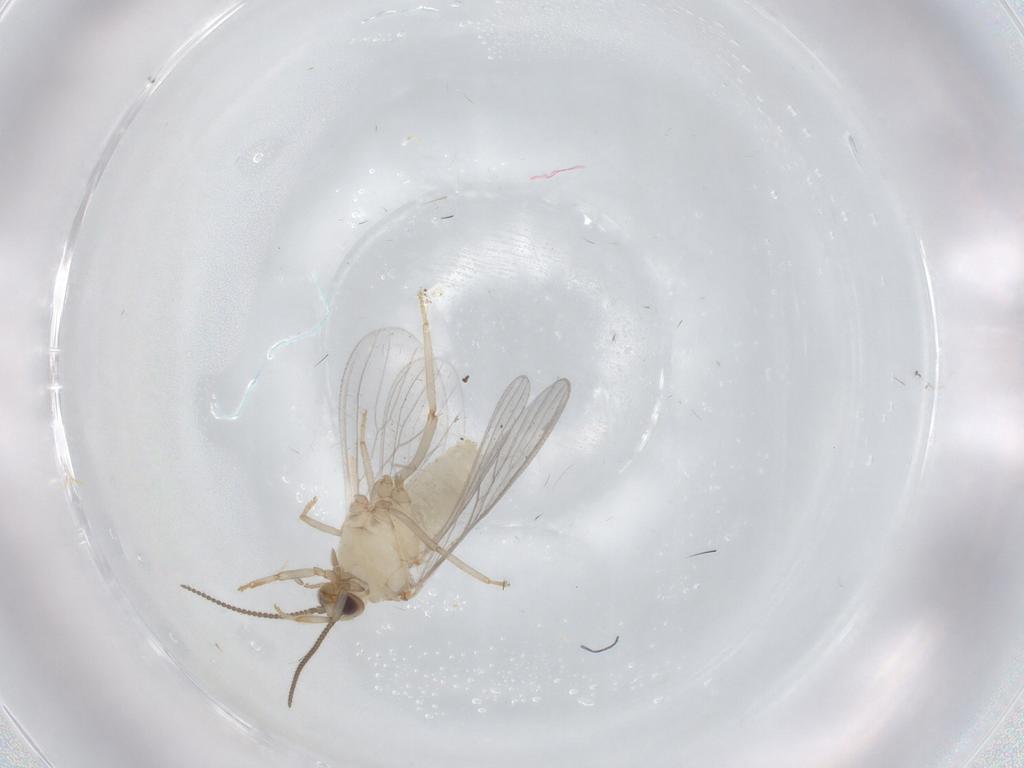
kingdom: Animalia
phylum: Arthropoda
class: Insecta
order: Neuroptera
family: Coniopterygidae
